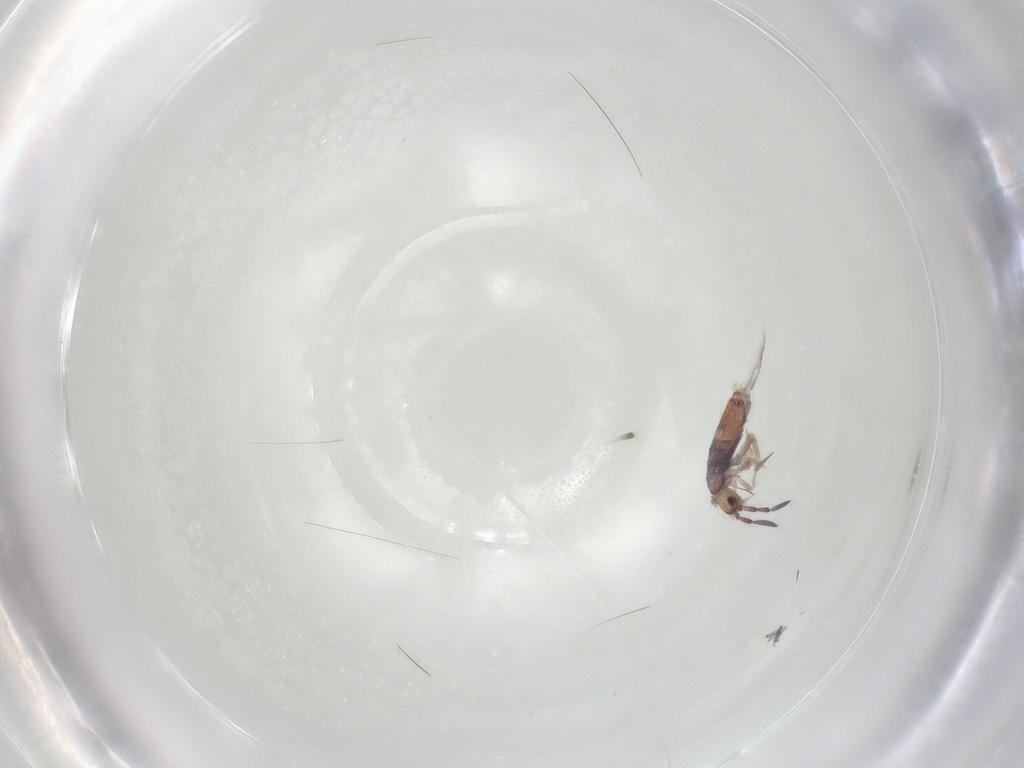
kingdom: Animalia
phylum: Arthropoda
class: Collembola
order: Entomobryomorpha
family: Entomobryidae
